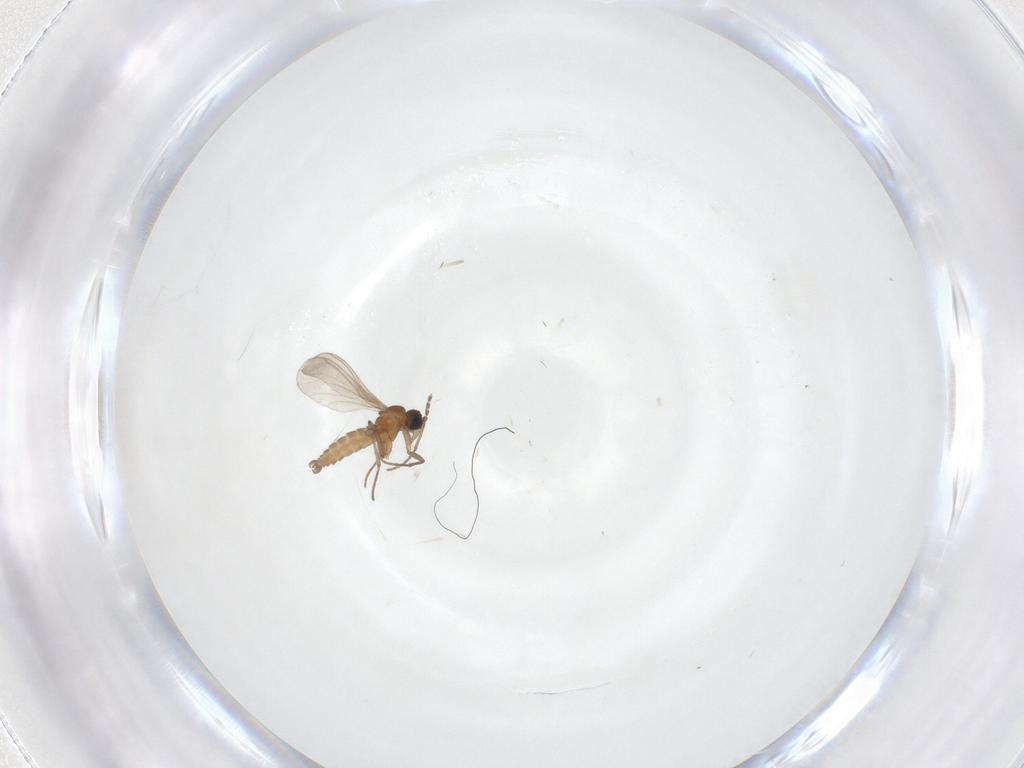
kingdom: Animalia
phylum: Arthropoda
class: Insecta
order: Diptera
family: Sciaridae
